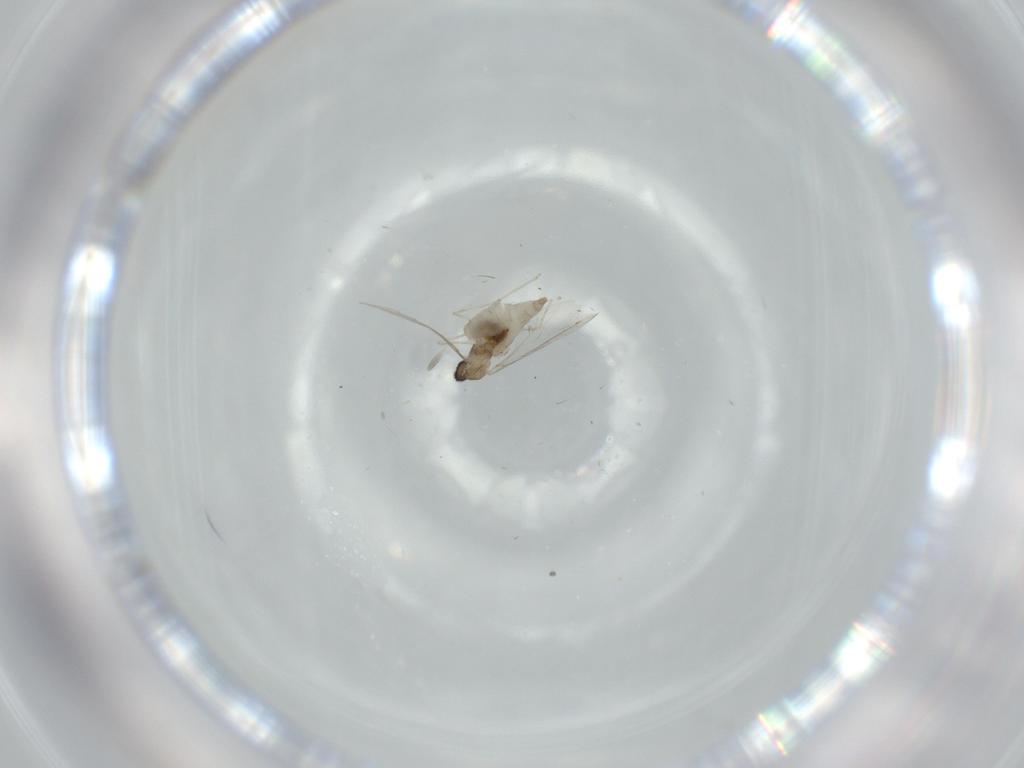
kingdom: Animalia
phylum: Arthropoda
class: Insecta
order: Diptera
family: Cecidomyiidae
